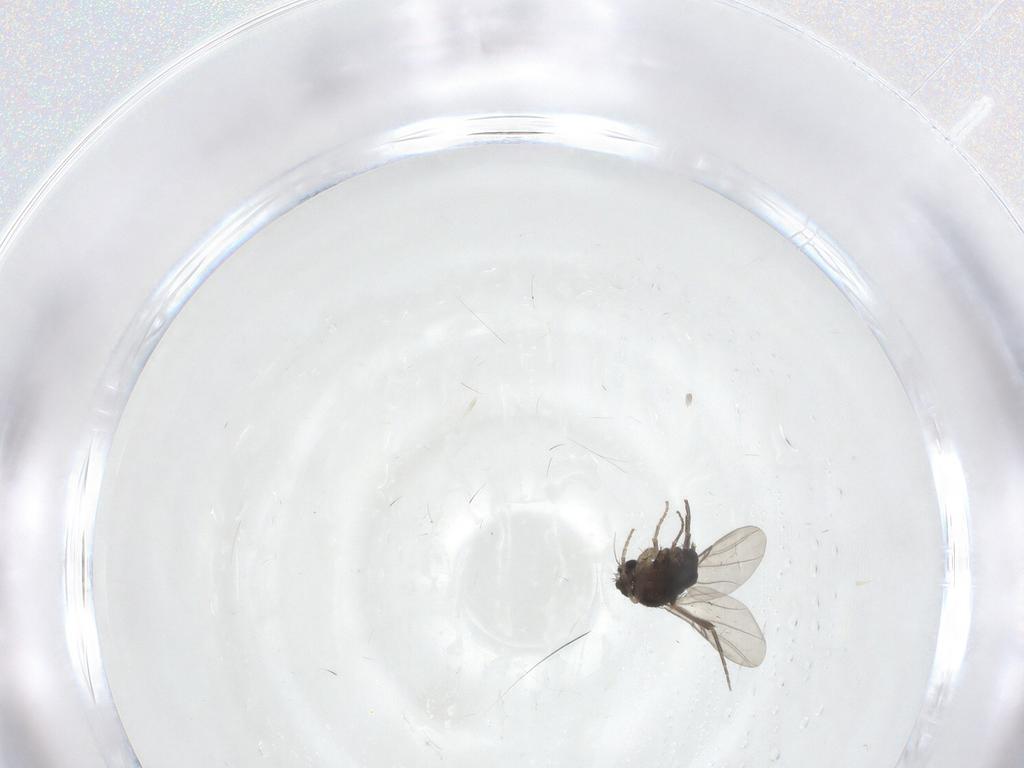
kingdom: Animalia
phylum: Arthropoda
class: Insecta
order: Diptera
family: Phoridae
